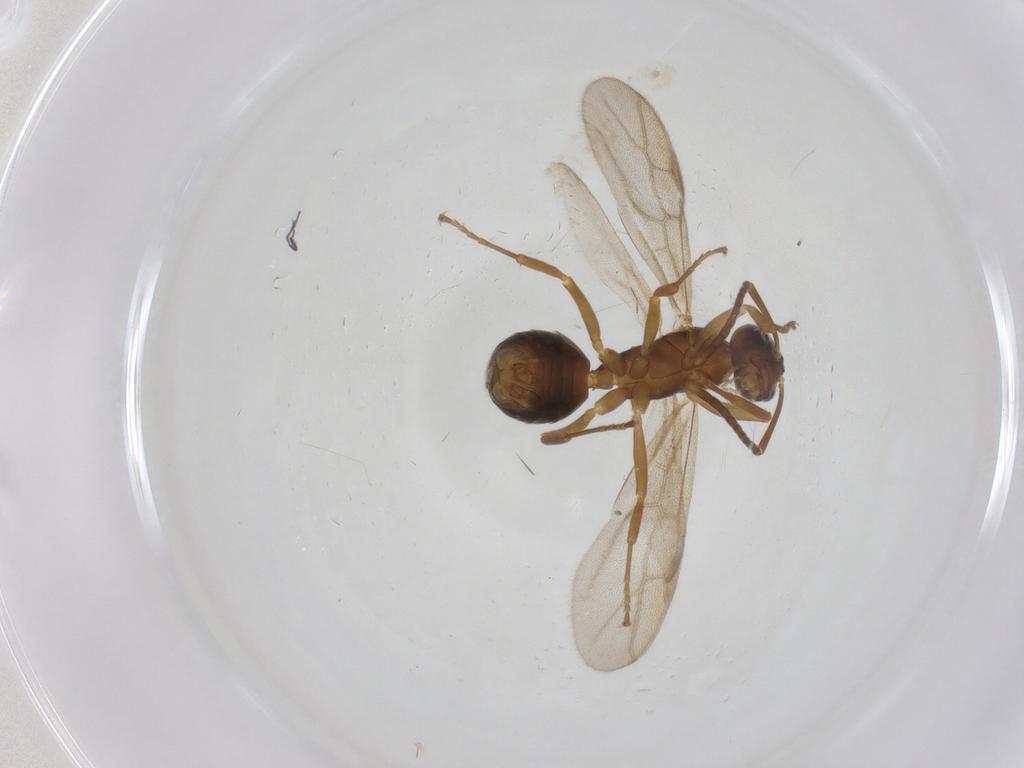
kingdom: Animalia
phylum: Arthropoda
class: Insecta
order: Hymenoptera
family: Formicidae
